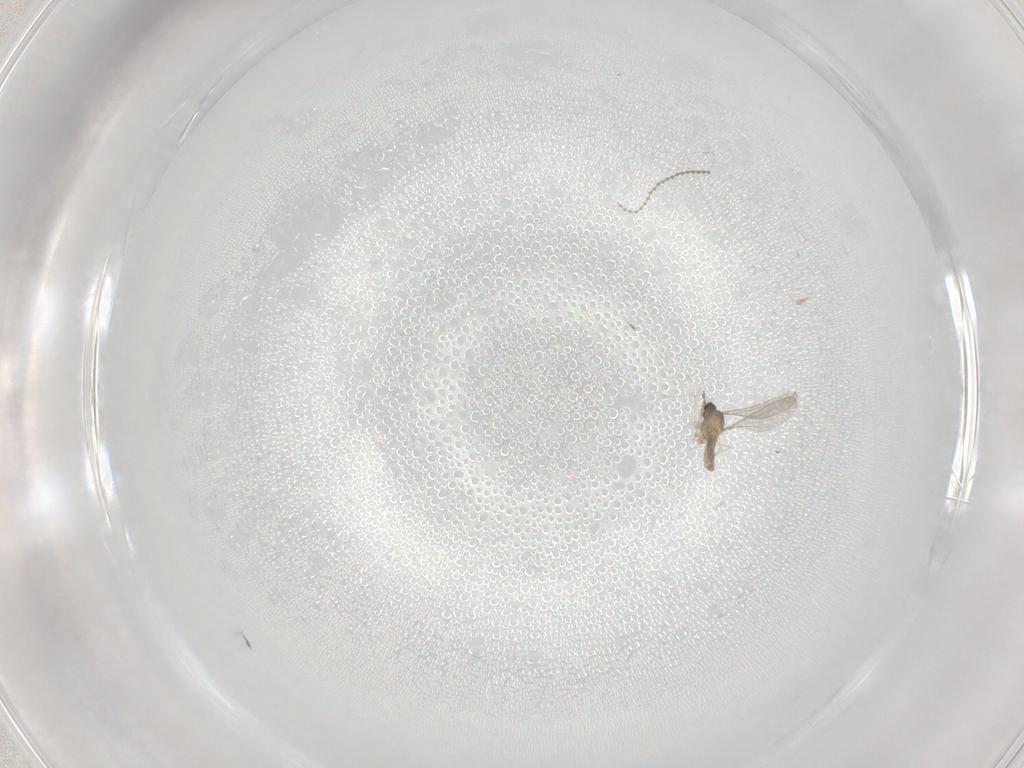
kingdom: Animalia
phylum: Arthropoda
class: Insecta
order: Diptera
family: Cecidomyiidae
